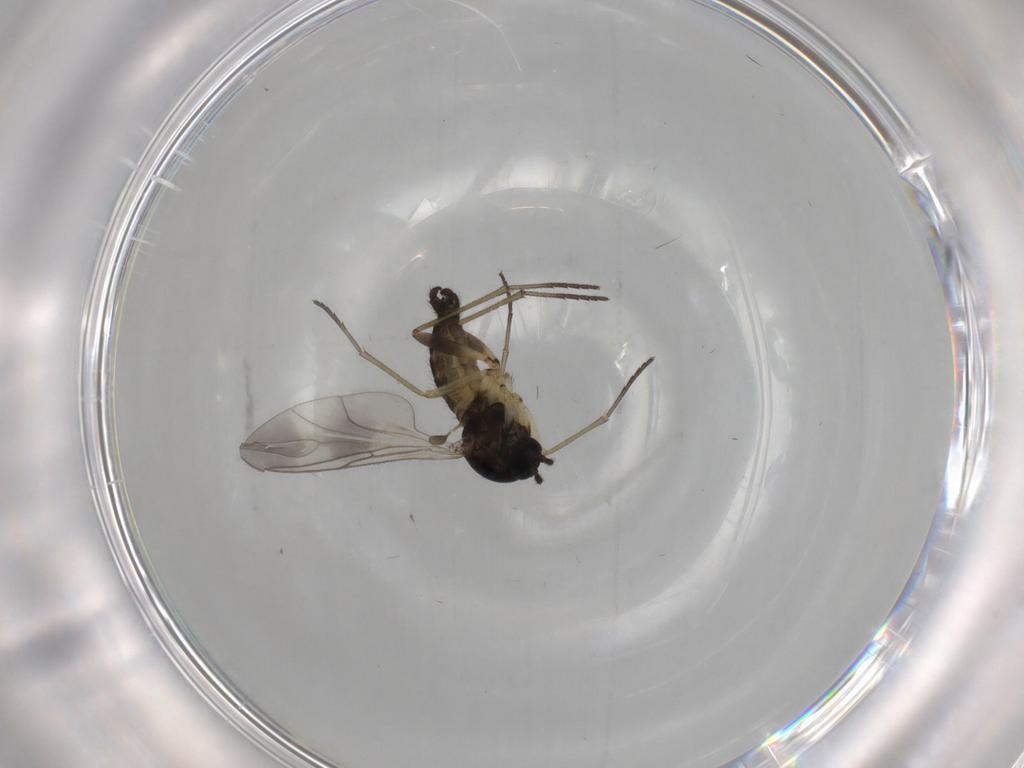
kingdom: Animalia
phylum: Arthropoda
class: Insecta
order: Diptera
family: Sciaridae
